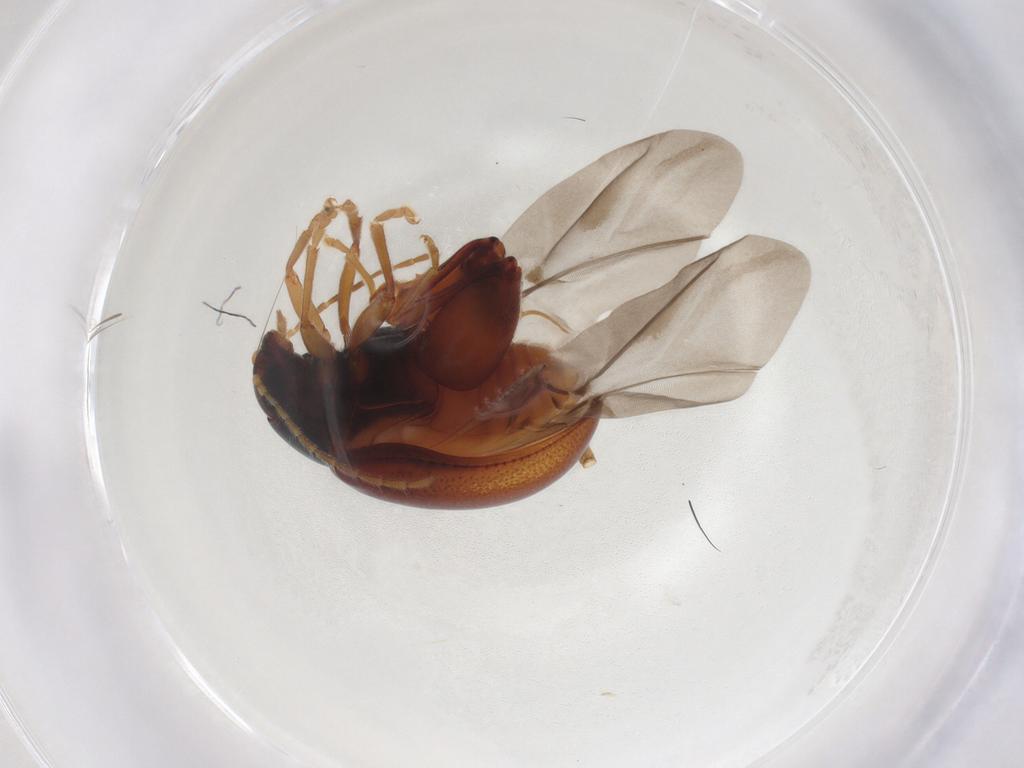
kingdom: Animalia
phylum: Arthropoda
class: Insecta
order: Coleoptera
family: Chrysomelidae
